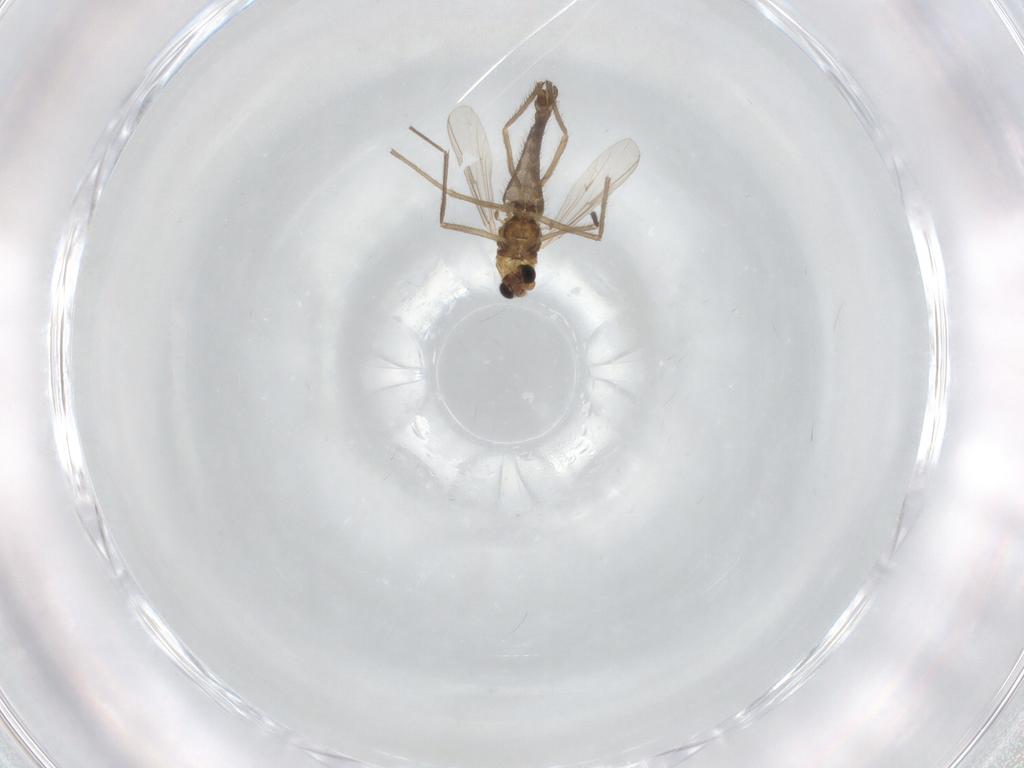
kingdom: Animalia
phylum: Arthropoda
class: Insecta
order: Diptera
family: Chironomidae
